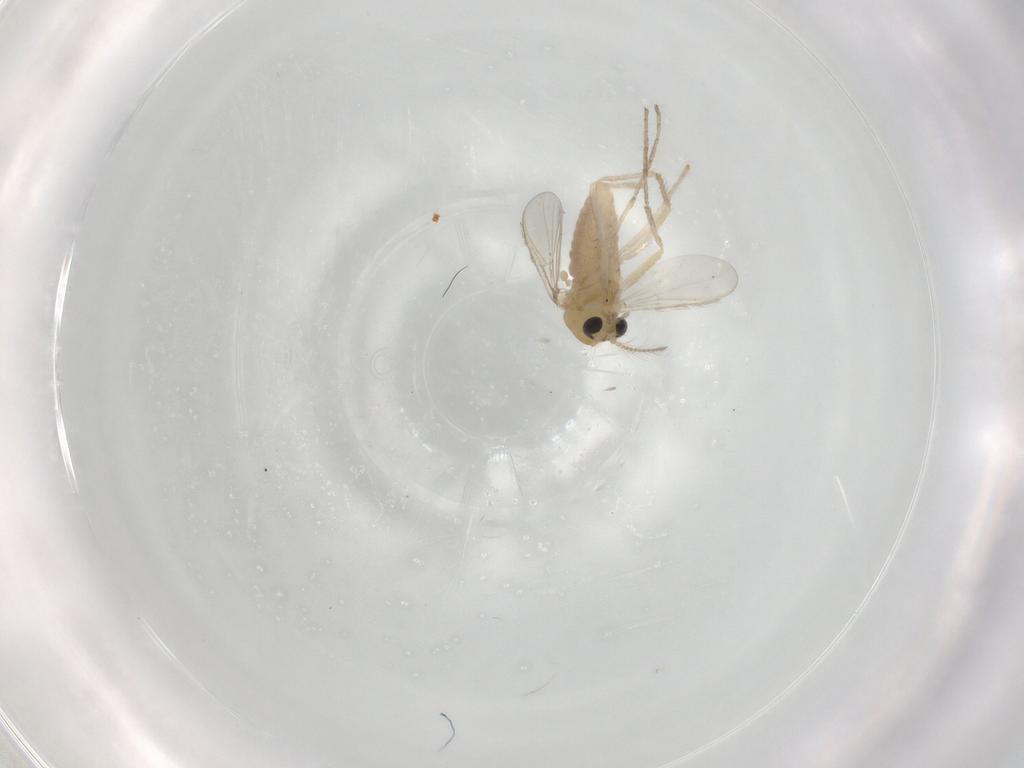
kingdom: Animalia
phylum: Arthropoda
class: Insecta
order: Diptera
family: Chironomidae
